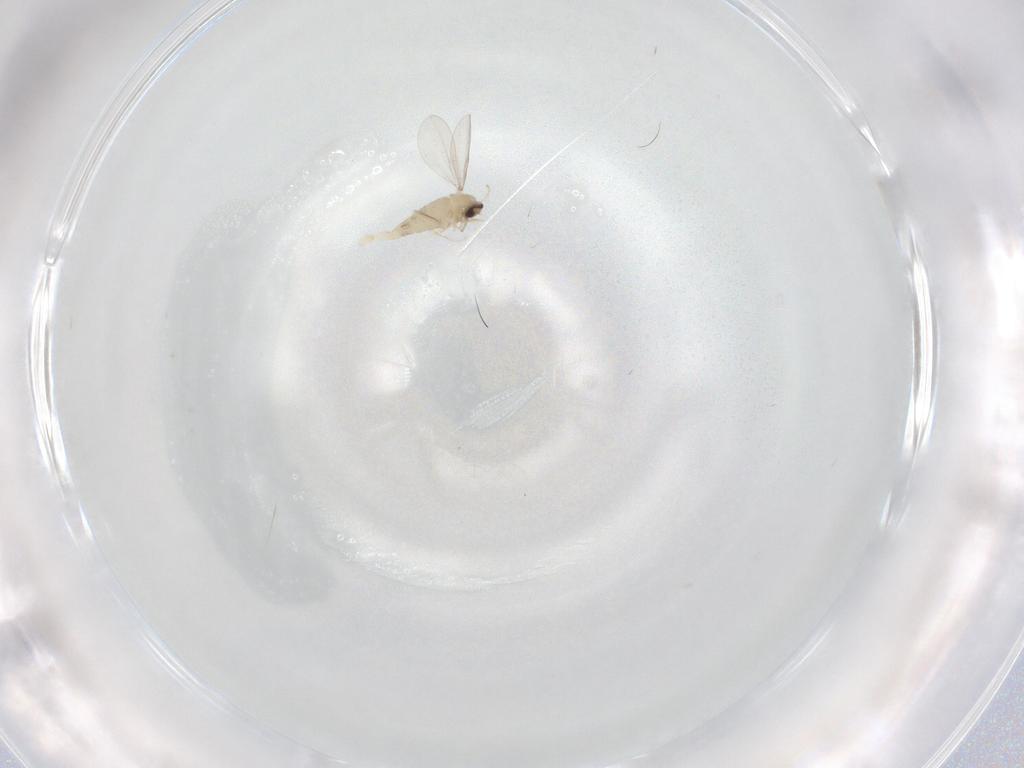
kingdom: Animalia
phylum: Arthropoda
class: Insecta
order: Diptera
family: Cecidomyiidae
